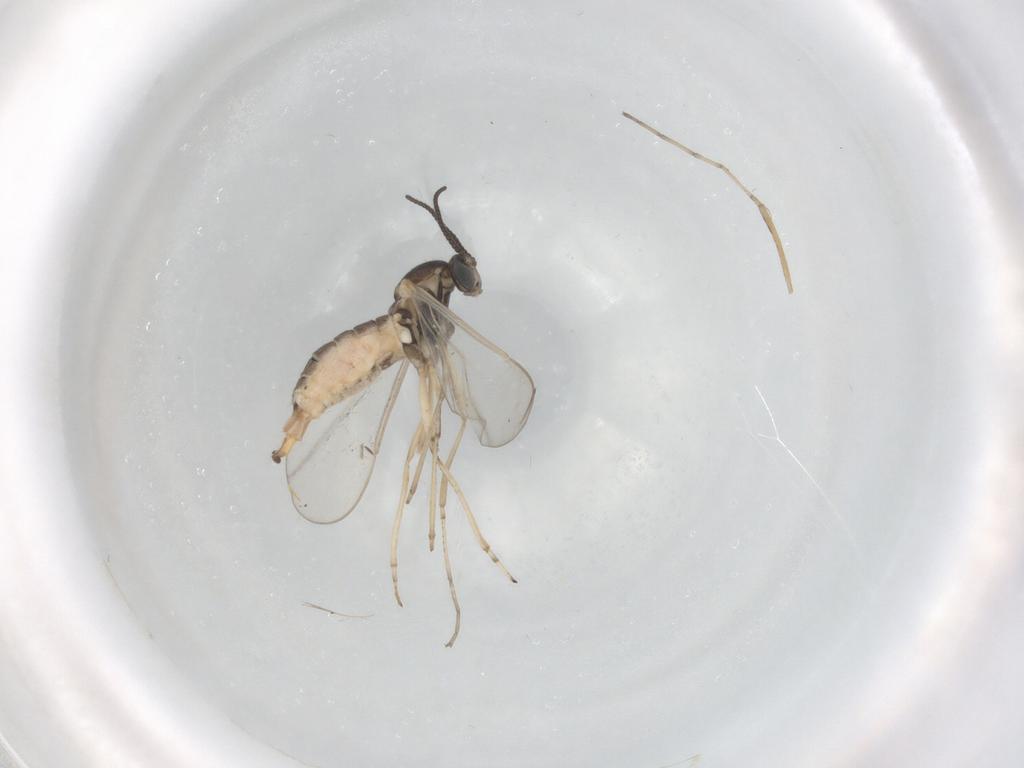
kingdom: Animalia
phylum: Arthropoda
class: Insecta
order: Diptera
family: Cecidomyiidae
